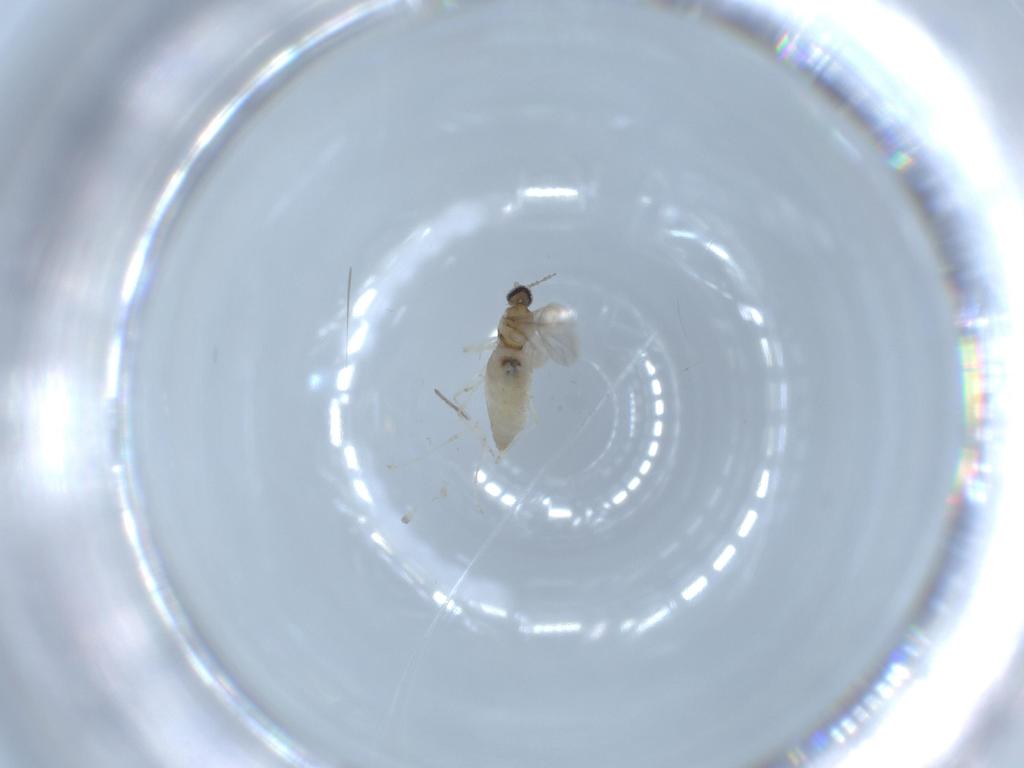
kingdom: Animalia
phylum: Arthropoda
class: Insecta
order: Diptera
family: Cecidomyiidae
